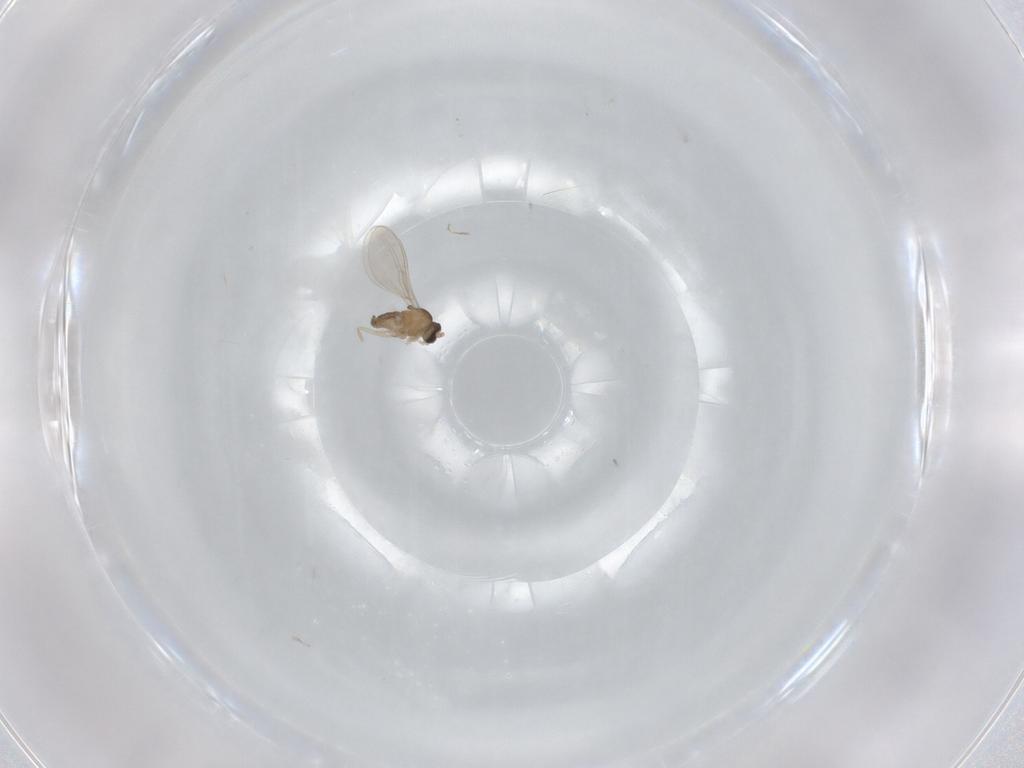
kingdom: Animalia
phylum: Arthropoda
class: Insecta
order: Diptera
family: Cecidomyiidae
